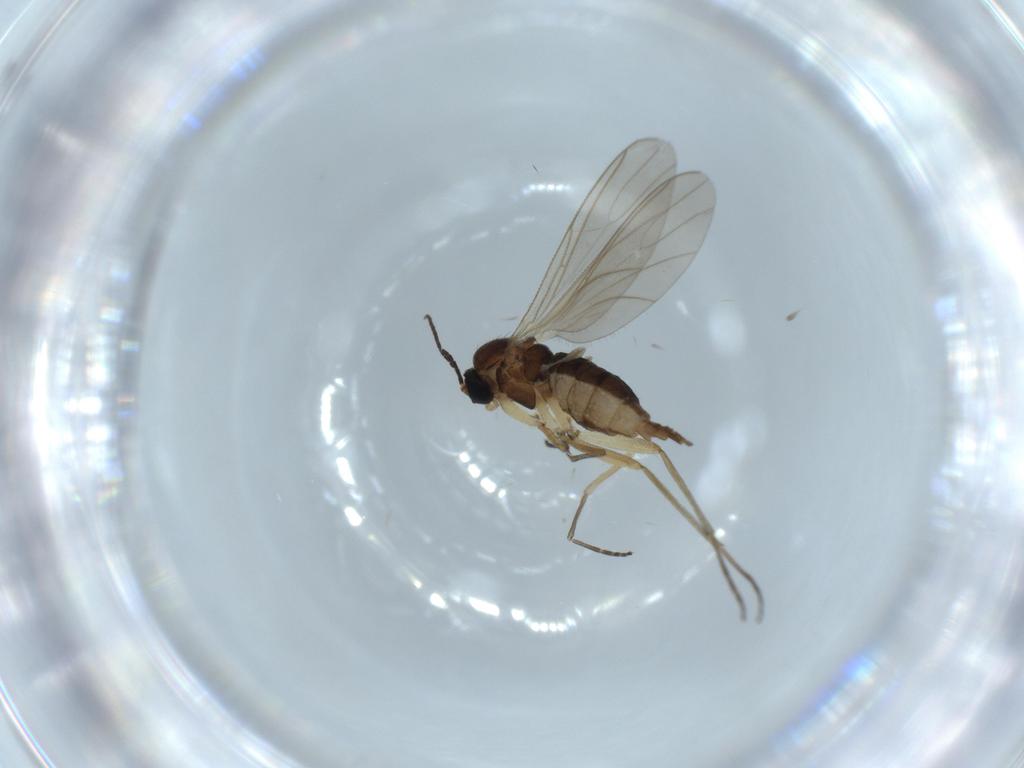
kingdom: Animalia
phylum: Arthropoda
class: Insecta
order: Diptera
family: Sciaridae
